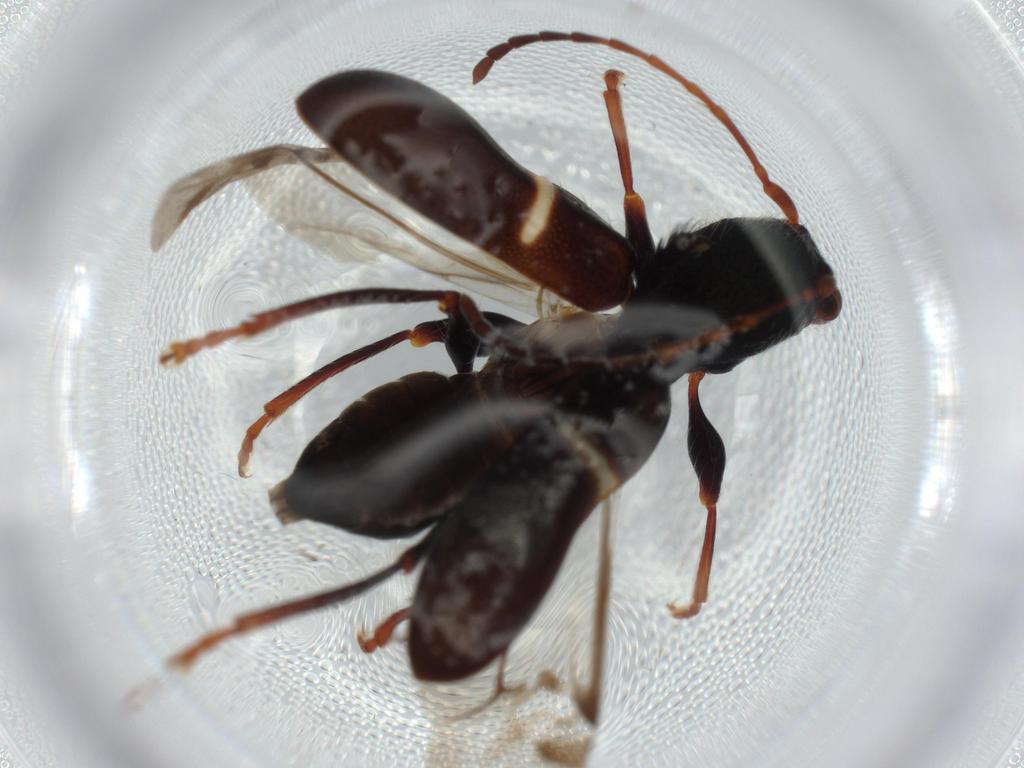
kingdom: Animalia
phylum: Arthropoda
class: Insecta
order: Coleoptera
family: Cerambycidae
